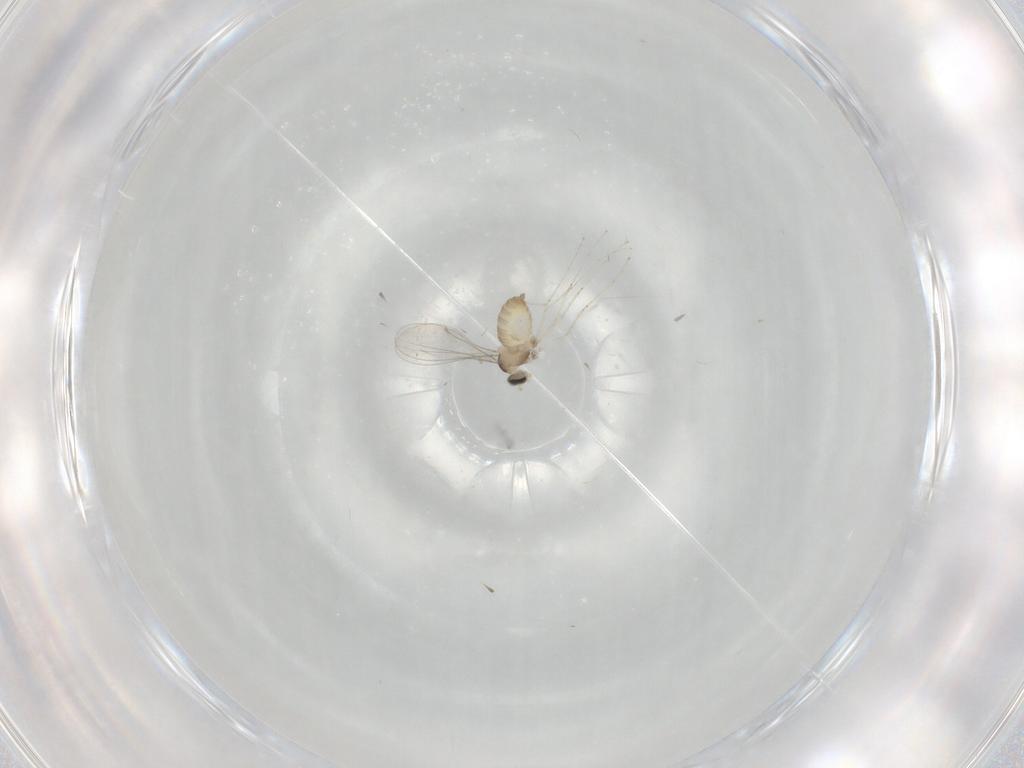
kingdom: Animalia
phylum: Arthropoda
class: Insecta
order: Diptera
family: Cecidomyiidae
